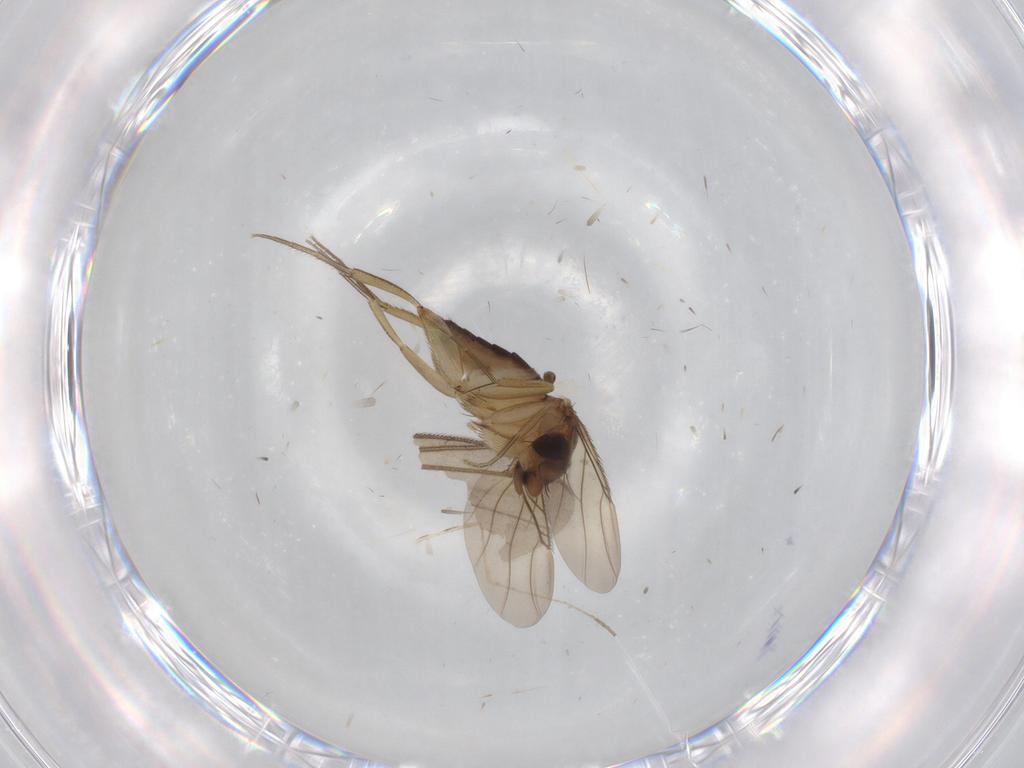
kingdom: Animalia
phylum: Arthropoda
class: Insecta
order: Diptera
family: Phoridae
